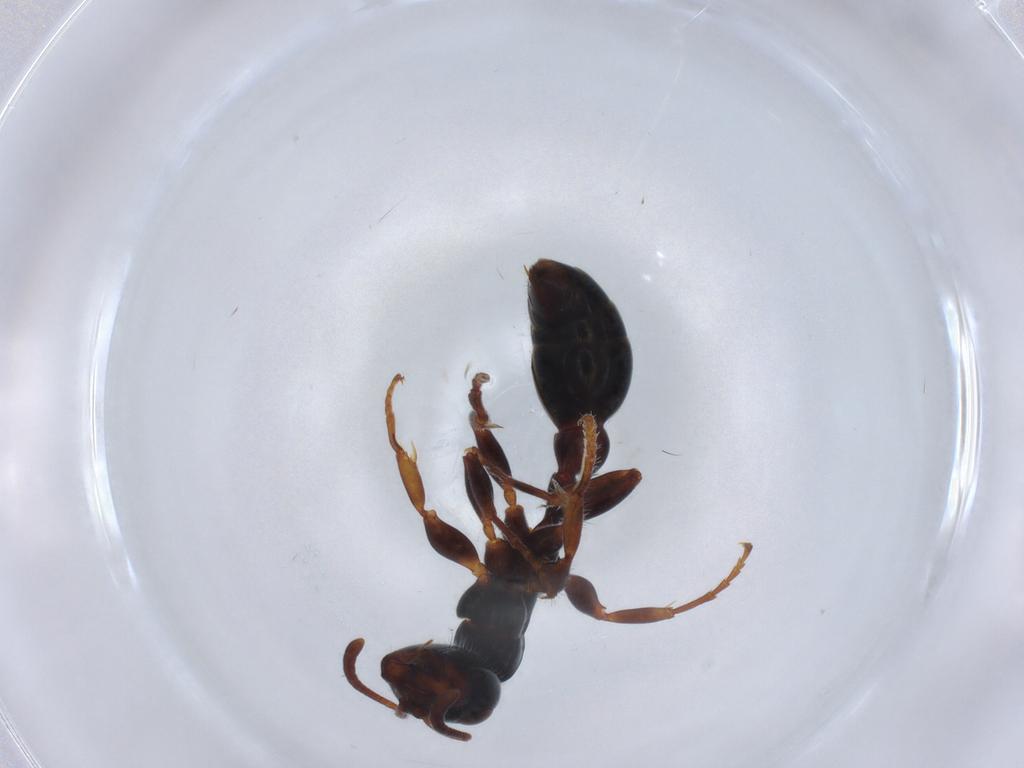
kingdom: Animalia
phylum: Arthropoda
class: Insecta
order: Hymenoptera
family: Formicidae
